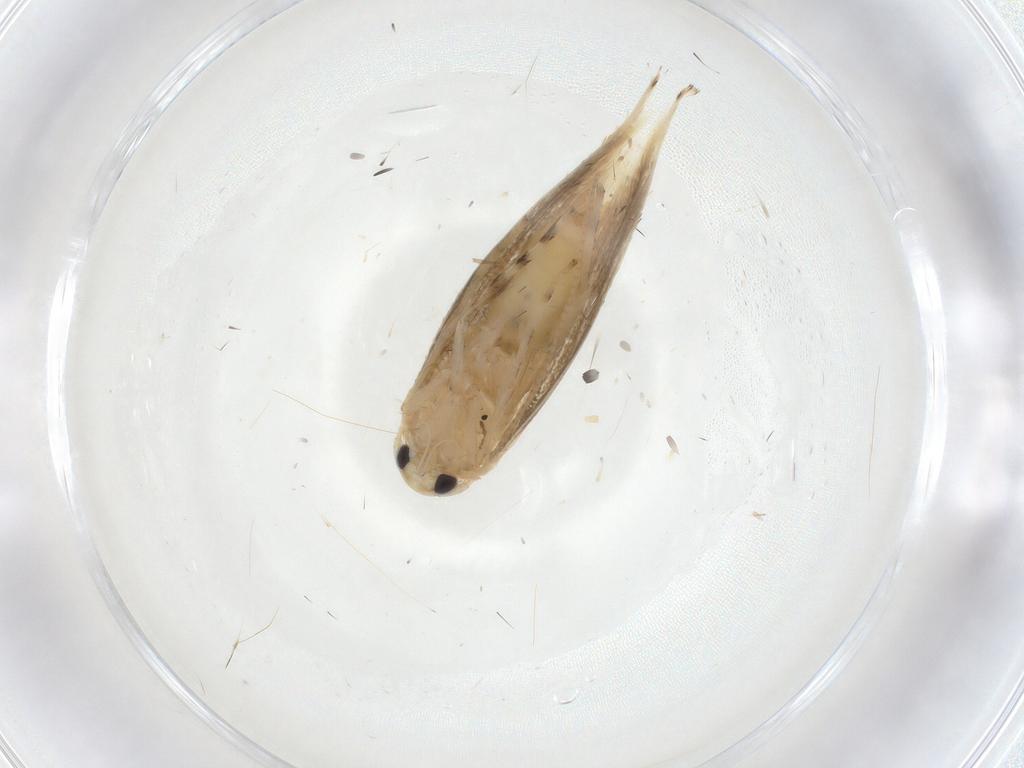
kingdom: Animalia
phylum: Arthropoda
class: Insecta
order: Lepidoptera
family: Gracillariidae
